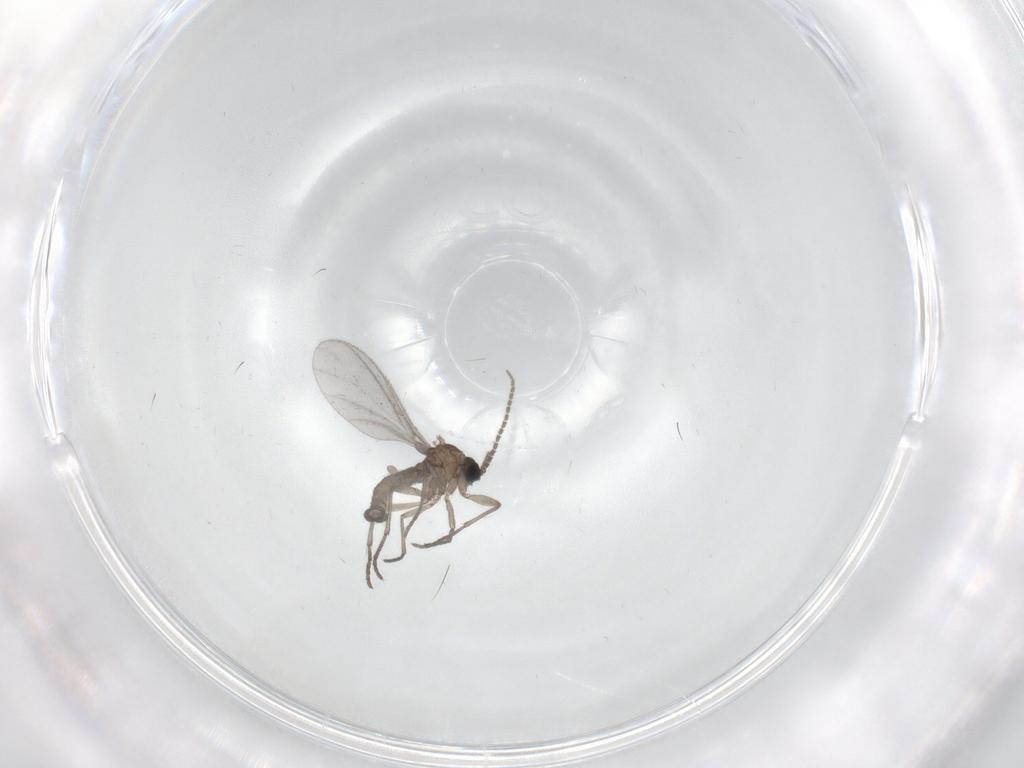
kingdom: Animalia
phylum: Arthropoda
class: Insecta
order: Diptera
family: Sciaridae
